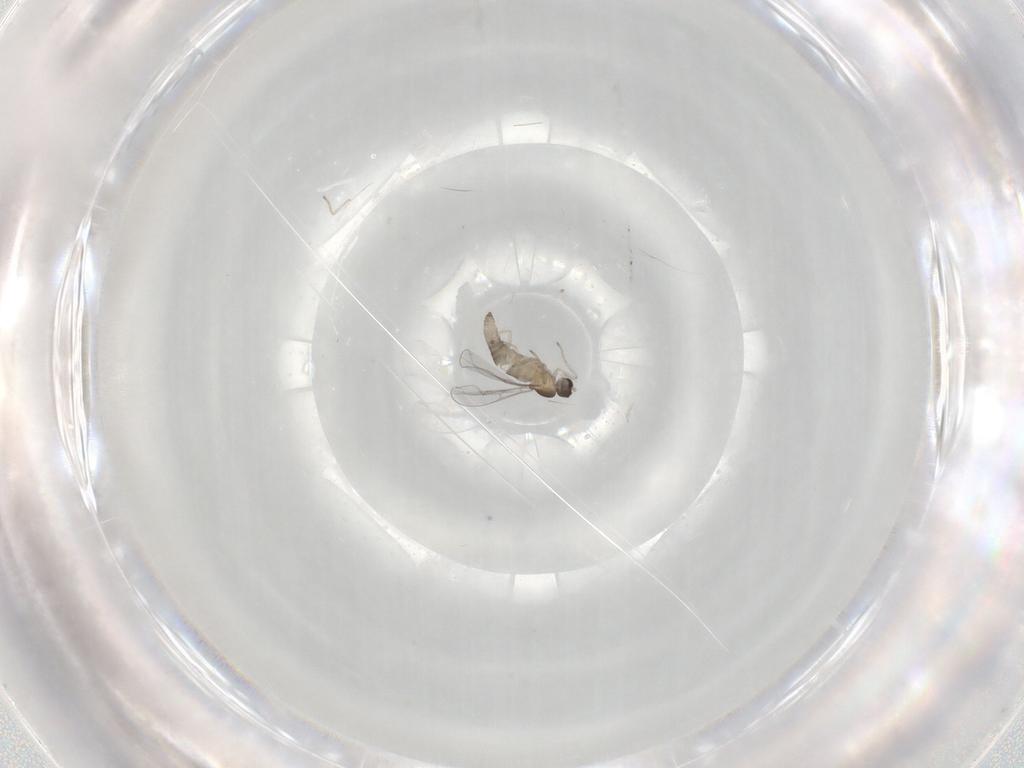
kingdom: Animalia
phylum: Arthropoda
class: Insecta
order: Diptera
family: Cecidomyiidae
